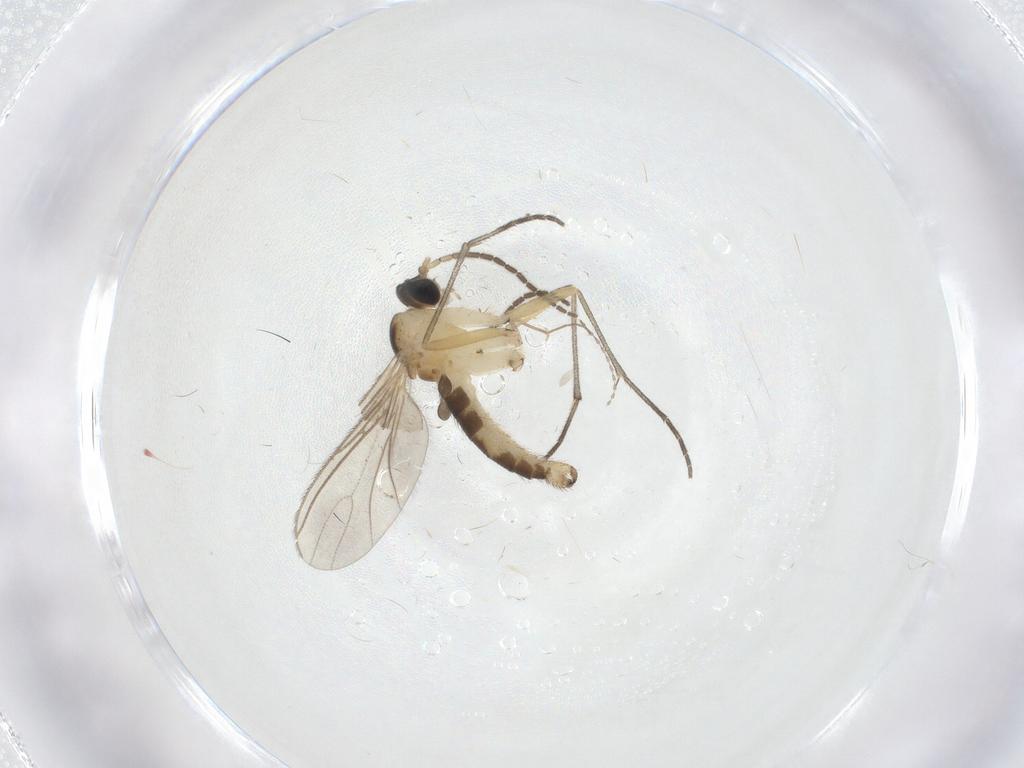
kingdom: Animalia
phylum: Arthropoda
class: Insecta
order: Diptera
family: Sciaridae
